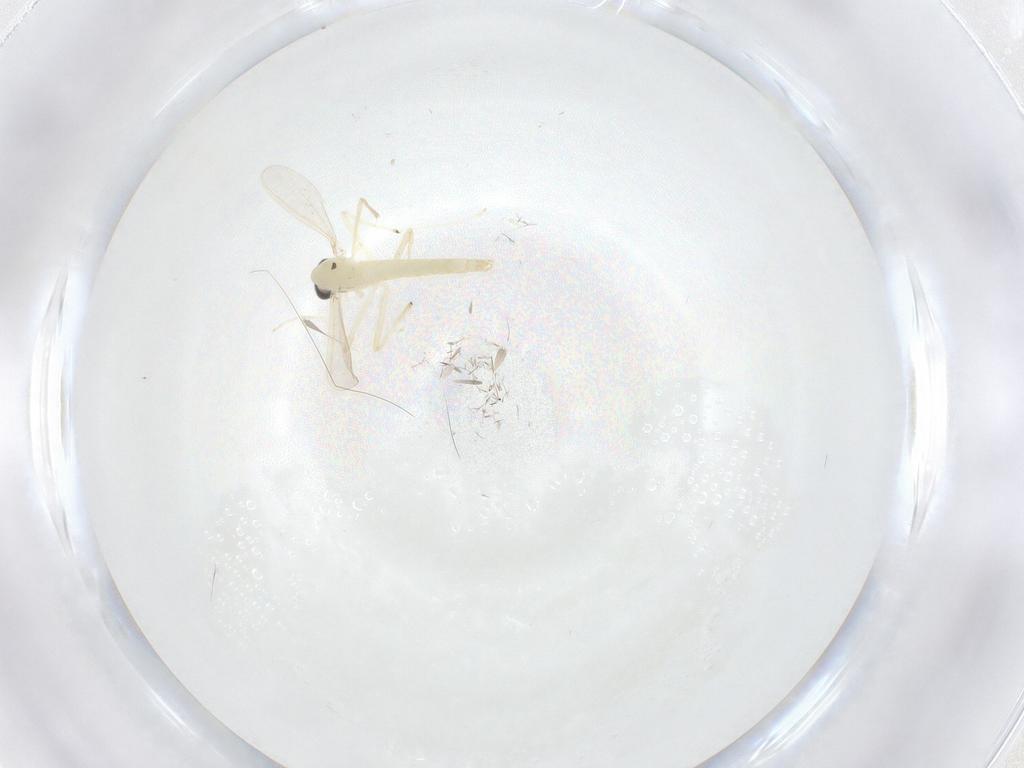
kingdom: Animalia
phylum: Arthropoda
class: Insecta
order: Diptera
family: Chironomidae
